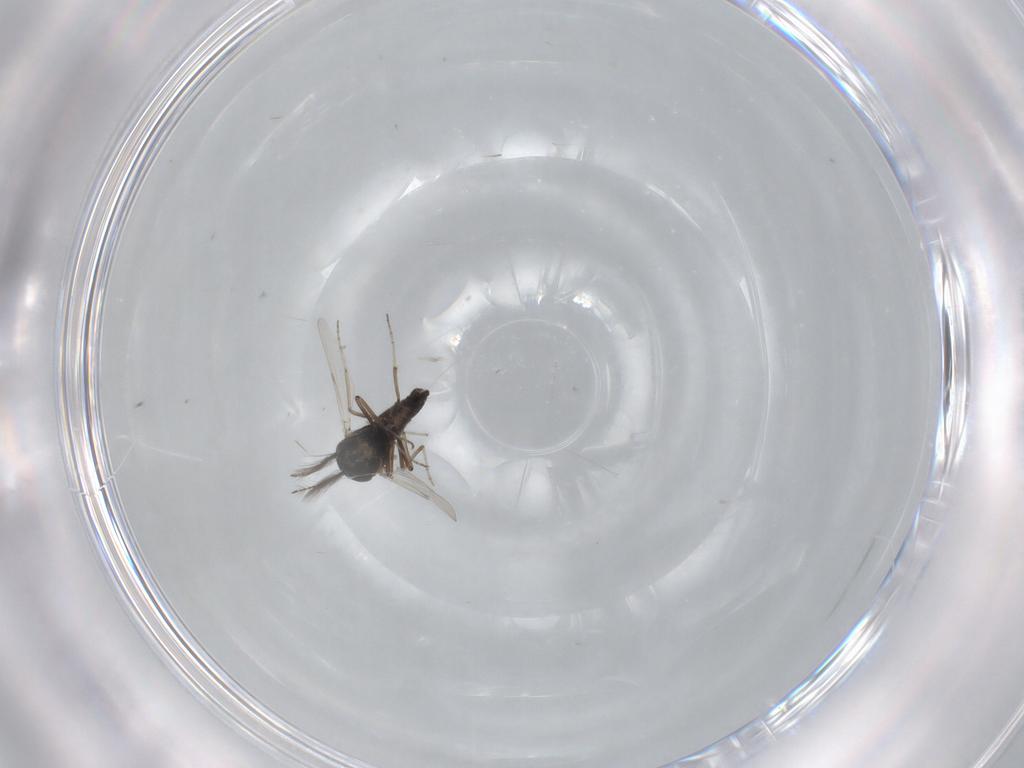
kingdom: Animalia
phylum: Arthropoda
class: Insecta
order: Diptera
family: Ceratopogonidae
